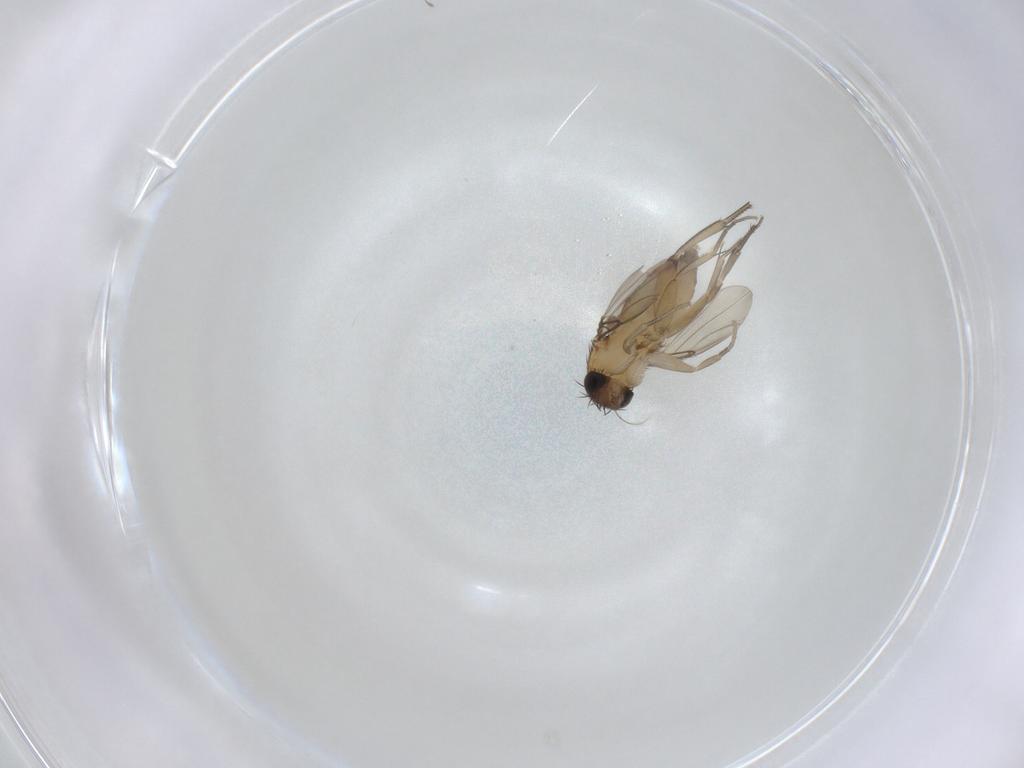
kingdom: Animalia
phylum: Arthropoda
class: Insecta
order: Diptera
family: Phoridae
